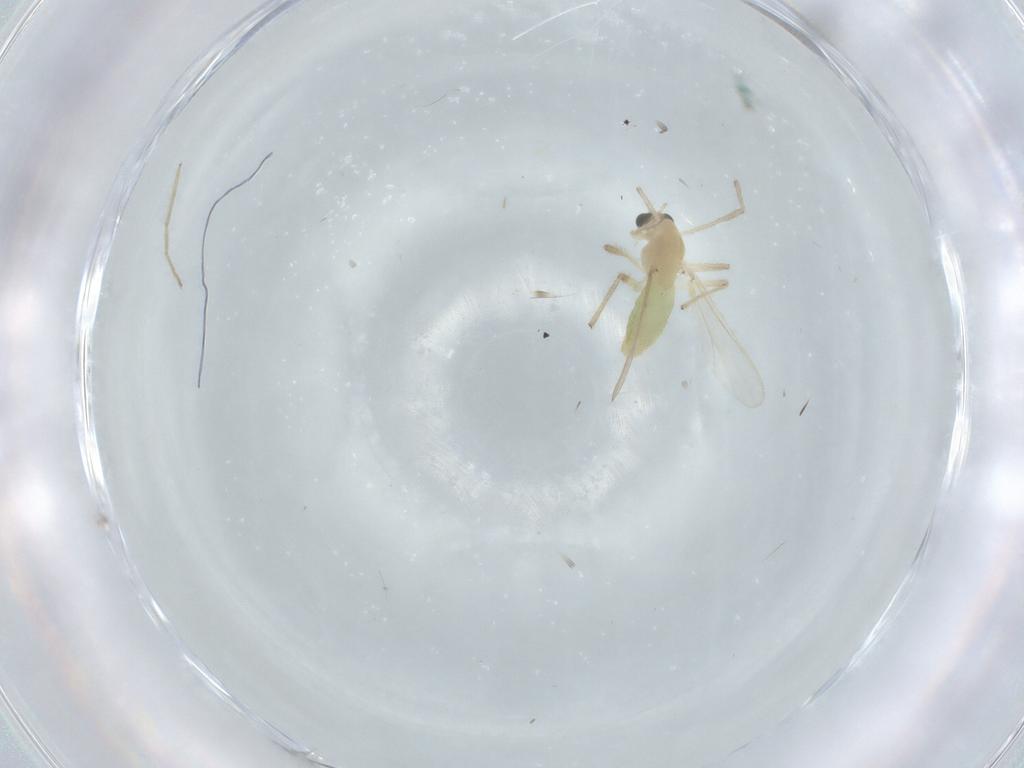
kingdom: Animalia
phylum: Arthropoda
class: Insecta
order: Diptera
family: Chironomidae
